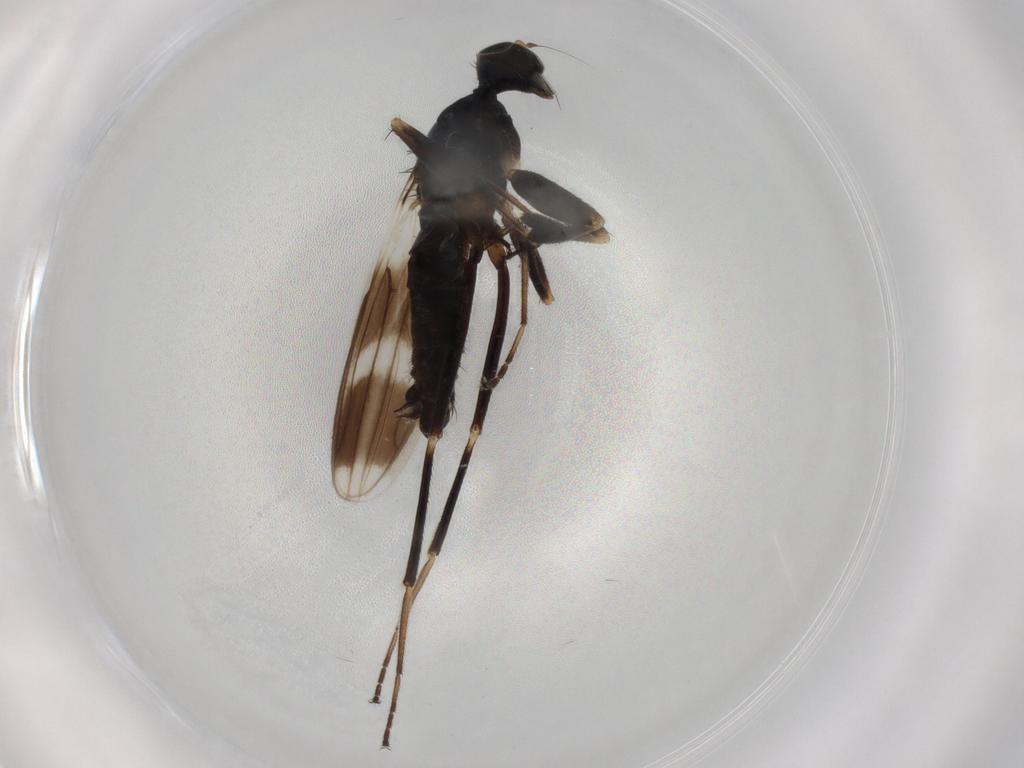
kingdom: Animalia
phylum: Arthropoda
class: Insecta
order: Diptera
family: Hybotidae
